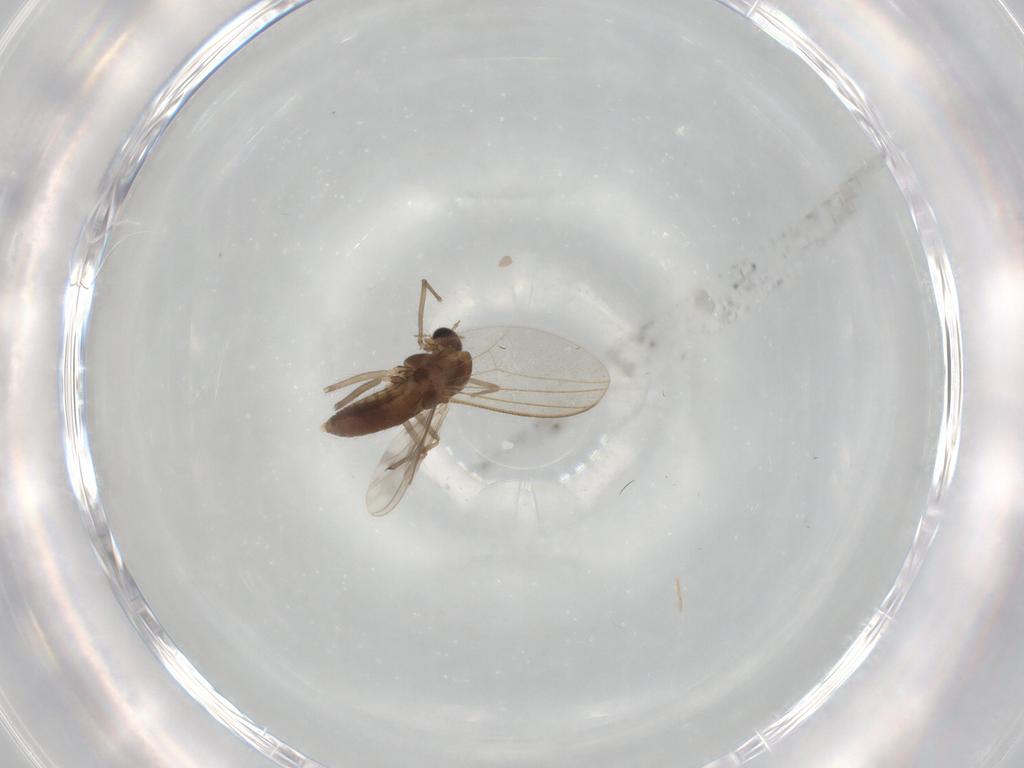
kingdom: Animalia
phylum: Arthropoda
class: Insecta
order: Diptera
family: Chironomidae
